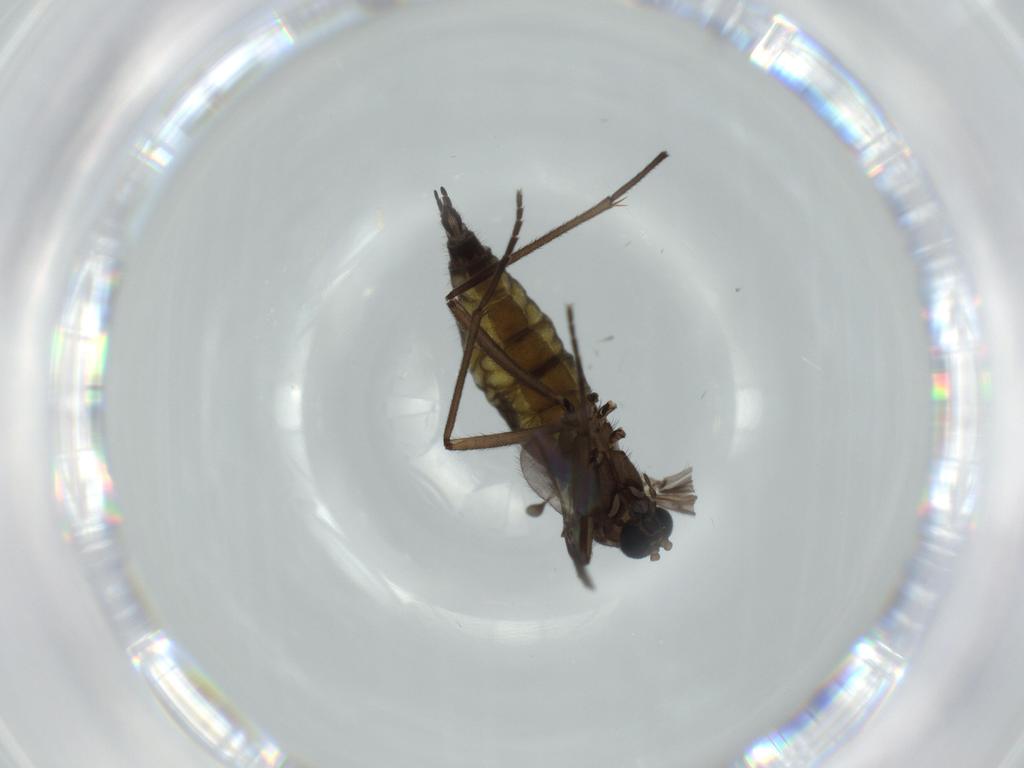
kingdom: Animalia
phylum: Arthropoda
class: Insecta
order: Diptera
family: Sciaridae
